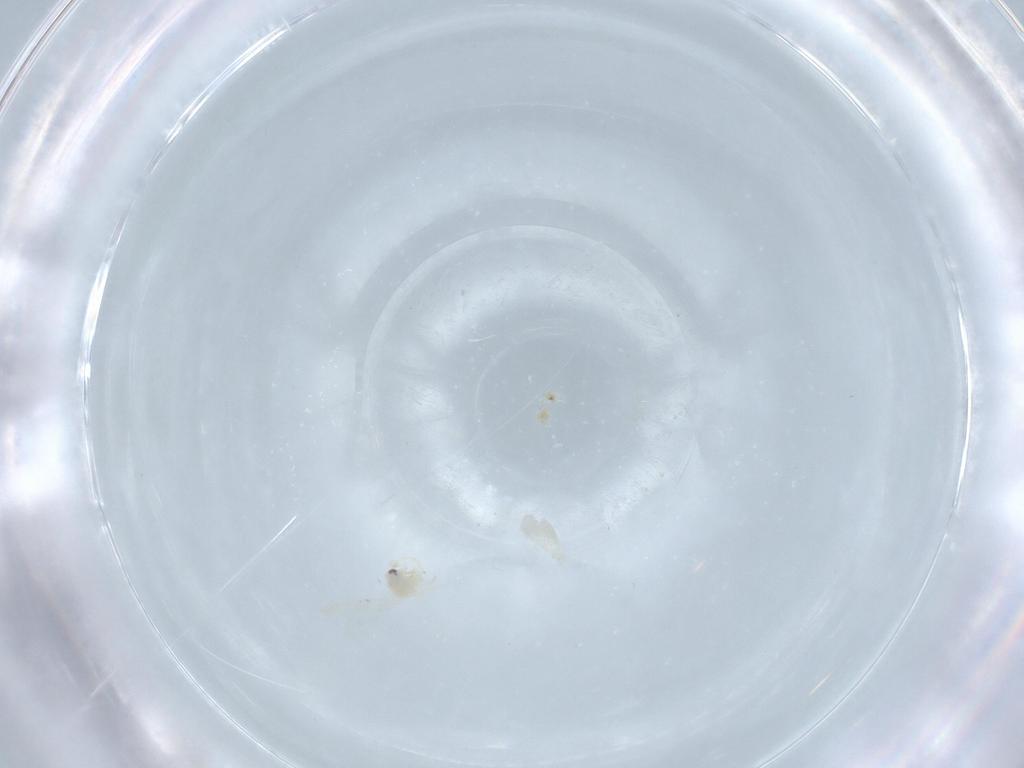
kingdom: Animalia
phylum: Arthropoda
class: Insecta
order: Hemiptera
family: Aleyrodidae
